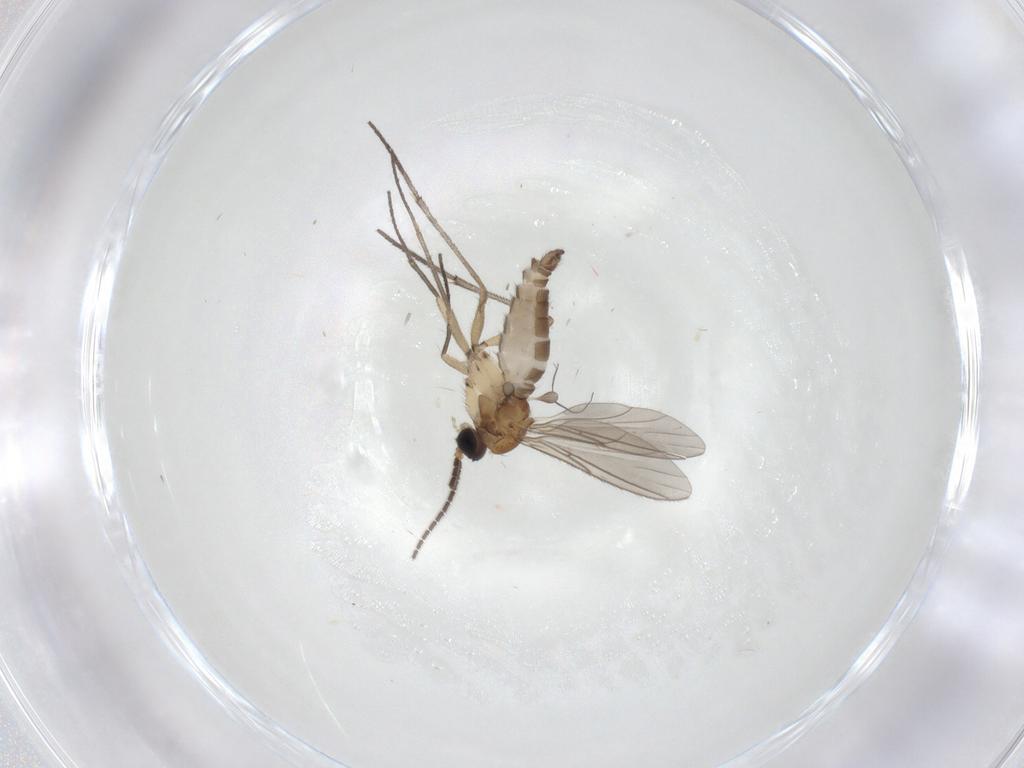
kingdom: Animalia
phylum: Arthropoda
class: Insecta
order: Diptera
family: Sciaridae
